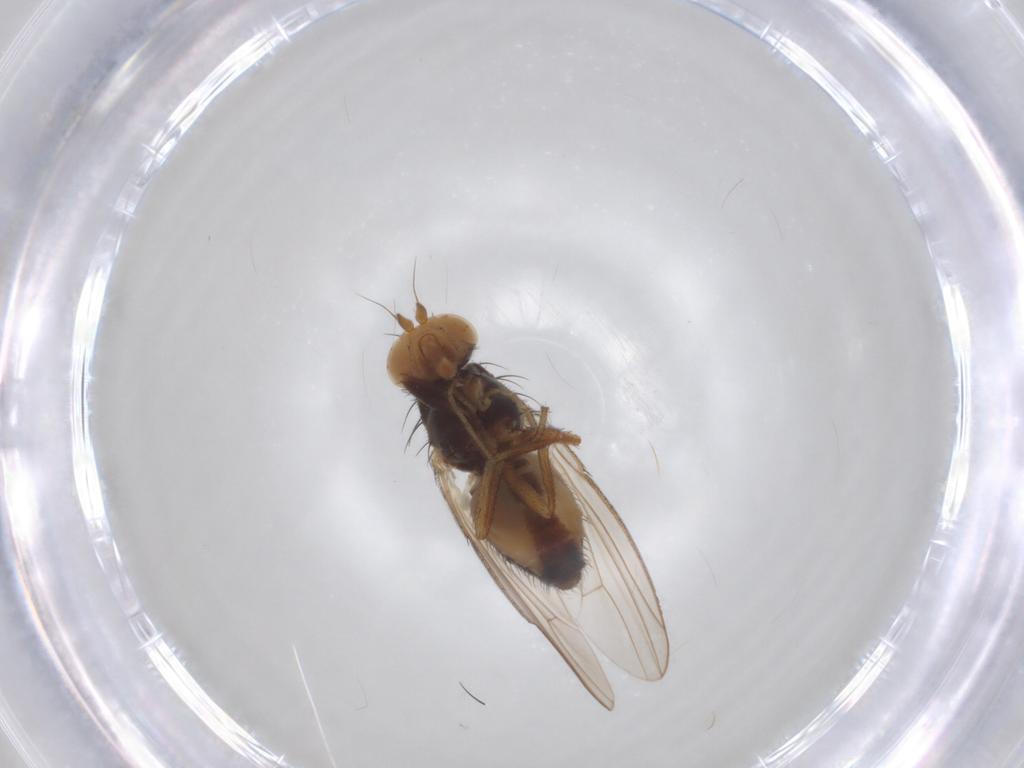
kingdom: Animalia
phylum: Arthropoda
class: Insecta
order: Diptera
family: Heleomyzidae
